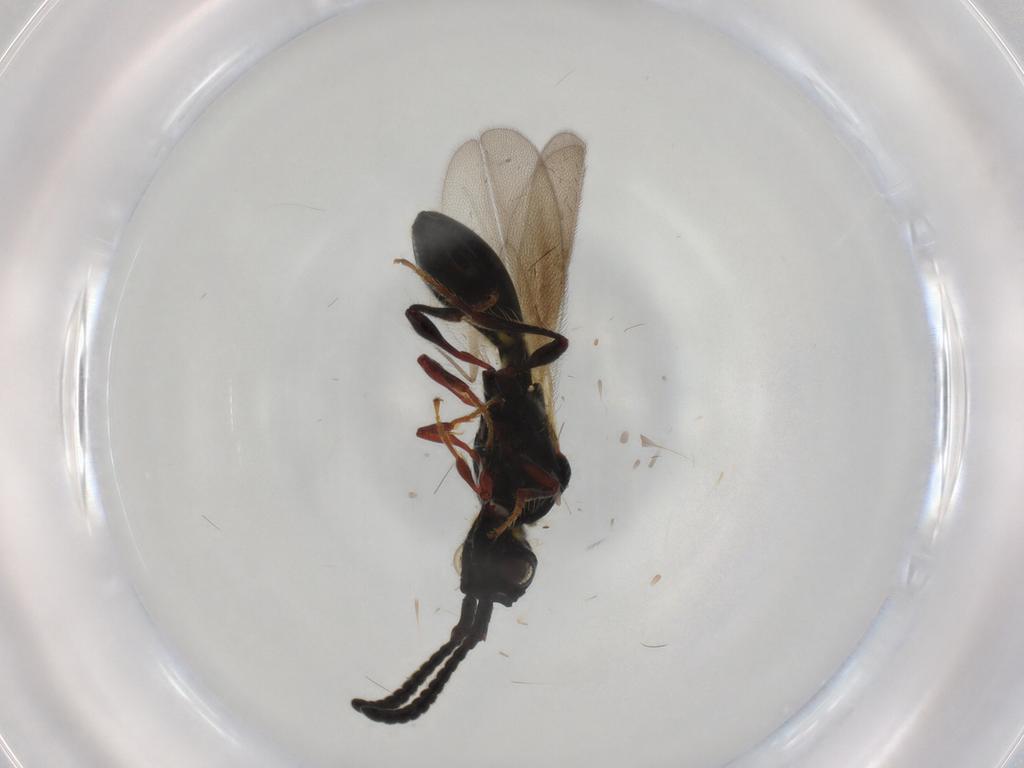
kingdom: Animalia
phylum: Arthropoda
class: Insecta
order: Hymenoptera
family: Diapriidae
